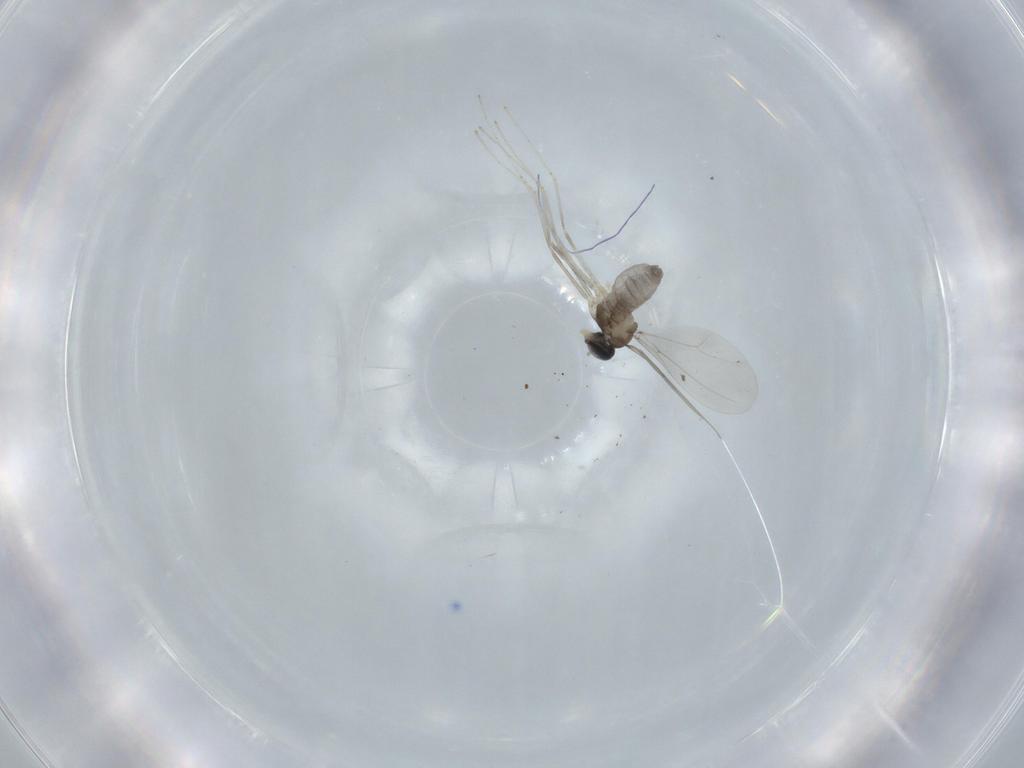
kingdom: Animalia
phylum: Arthropoda
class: Insecta
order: Diptera
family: Cecidomyiidae
